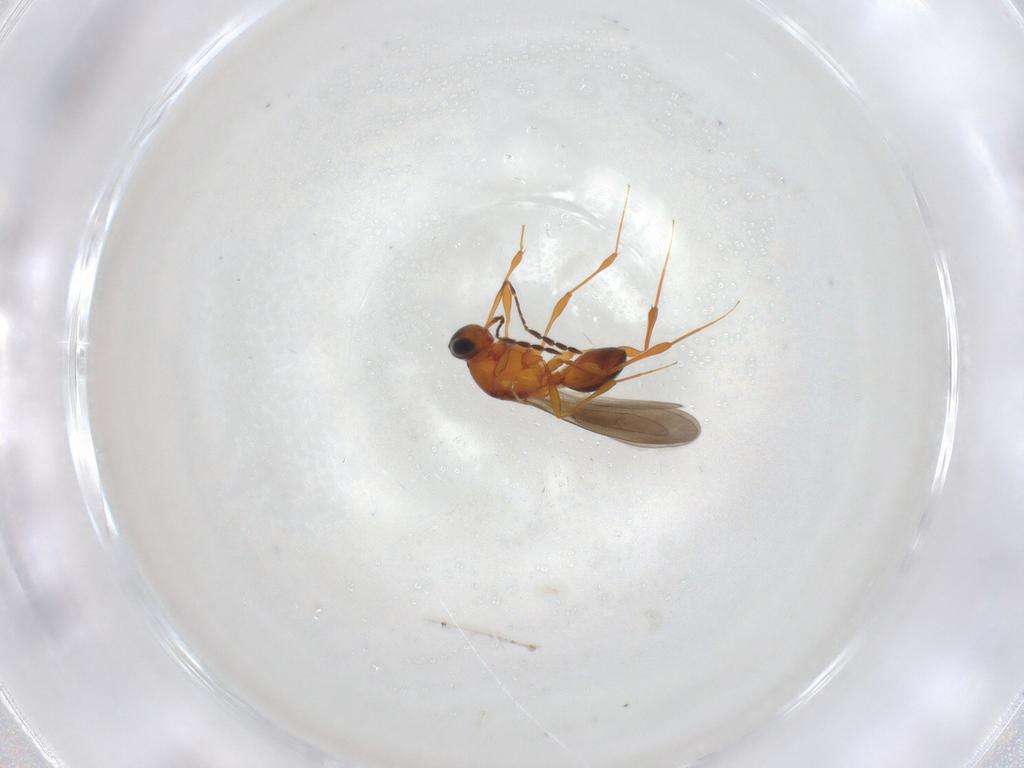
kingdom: Animalia
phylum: Arthropoda
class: Insecta
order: Hymenoptera
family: Platygastridae
